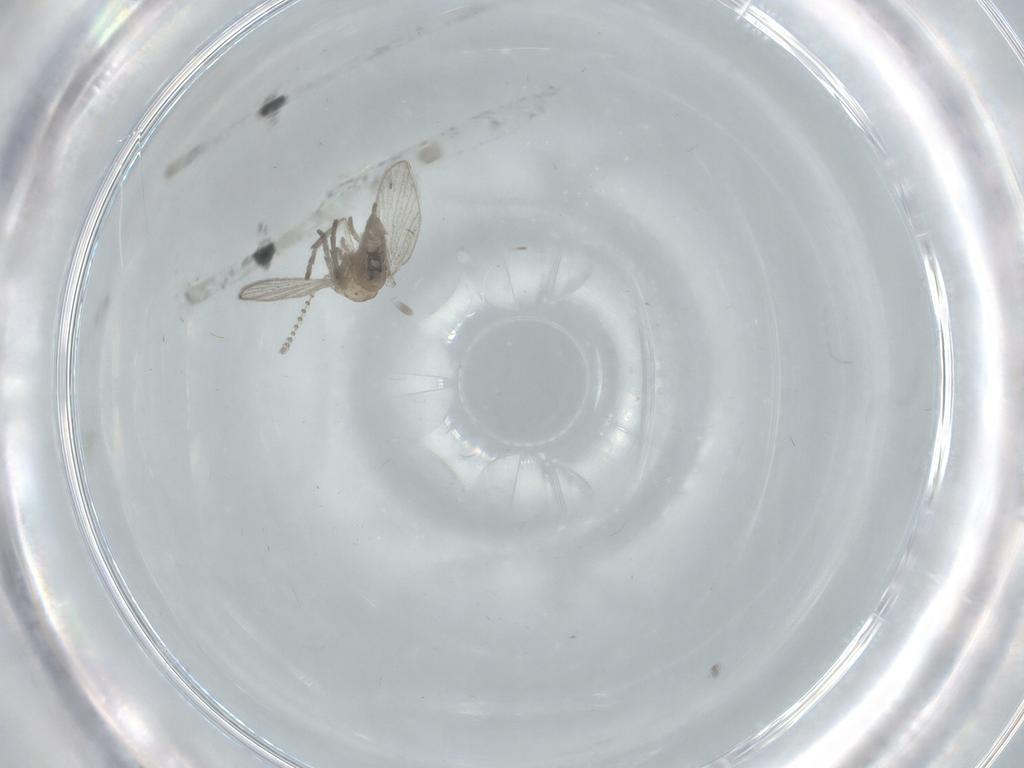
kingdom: Animalia
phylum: Arthropoda
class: Insecta
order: Diptera
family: Psychodidae
